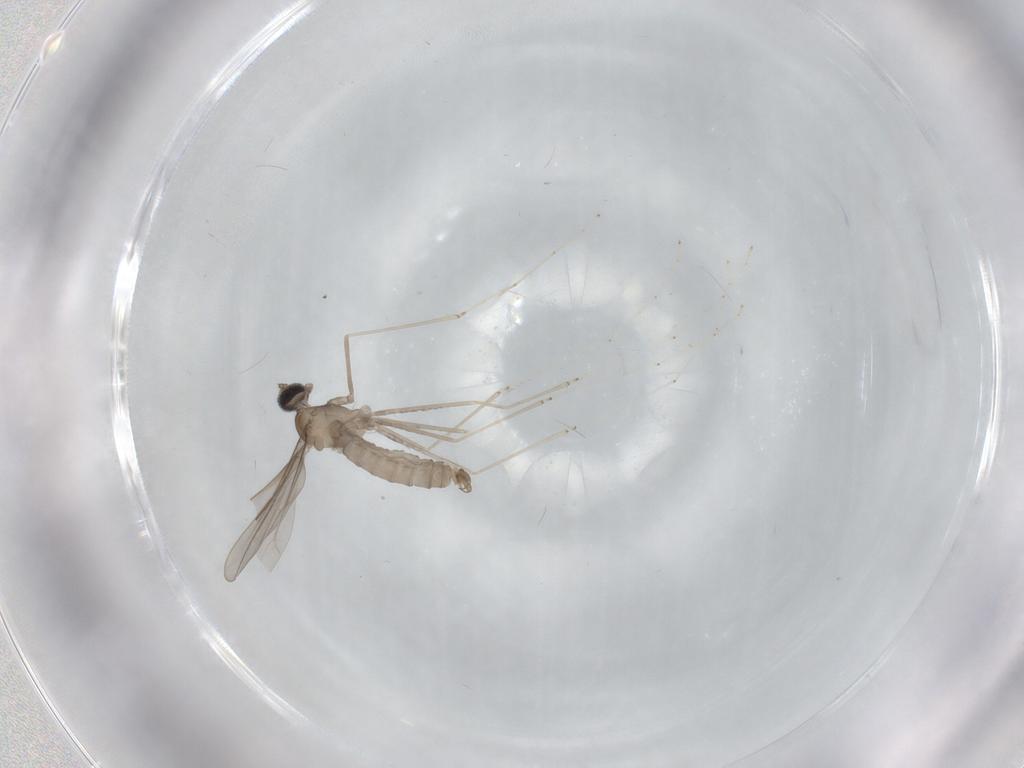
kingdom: Animalia
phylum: Arthropoda
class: Insecta
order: Diptera
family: Cecidomyiidae
